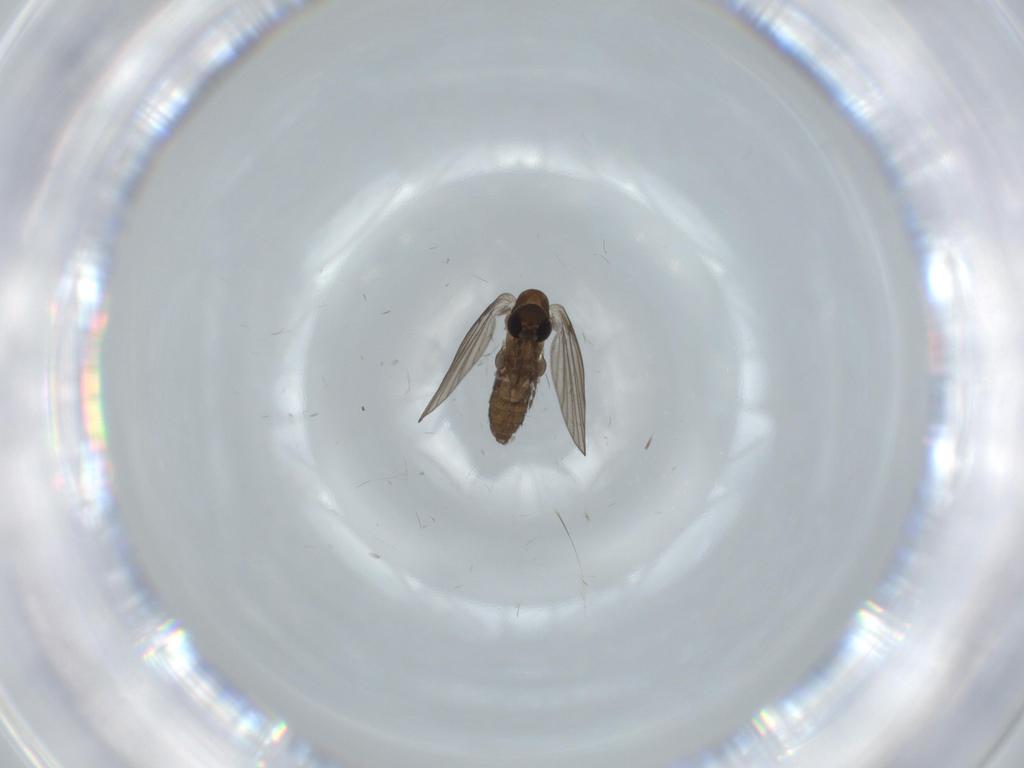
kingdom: Animalia
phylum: Arthropoda
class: Insecta
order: Diptera
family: Psychodidae
